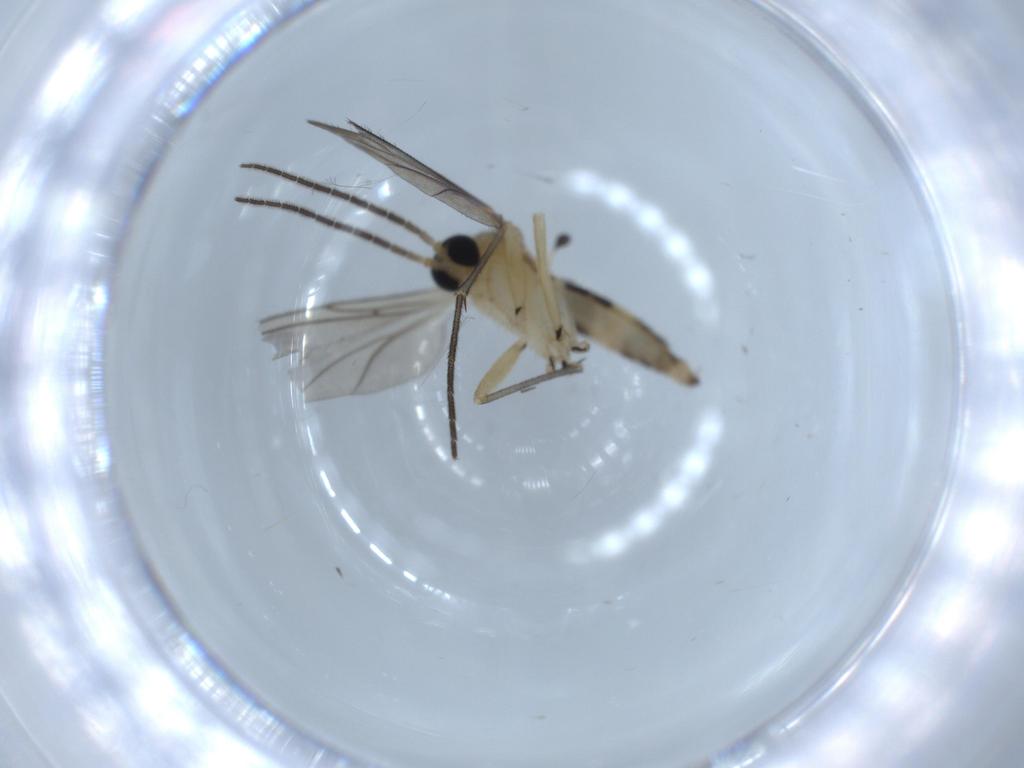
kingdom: Animalia
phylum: Arthropoda
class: Insecta
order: Diptera
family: Sciaridae
